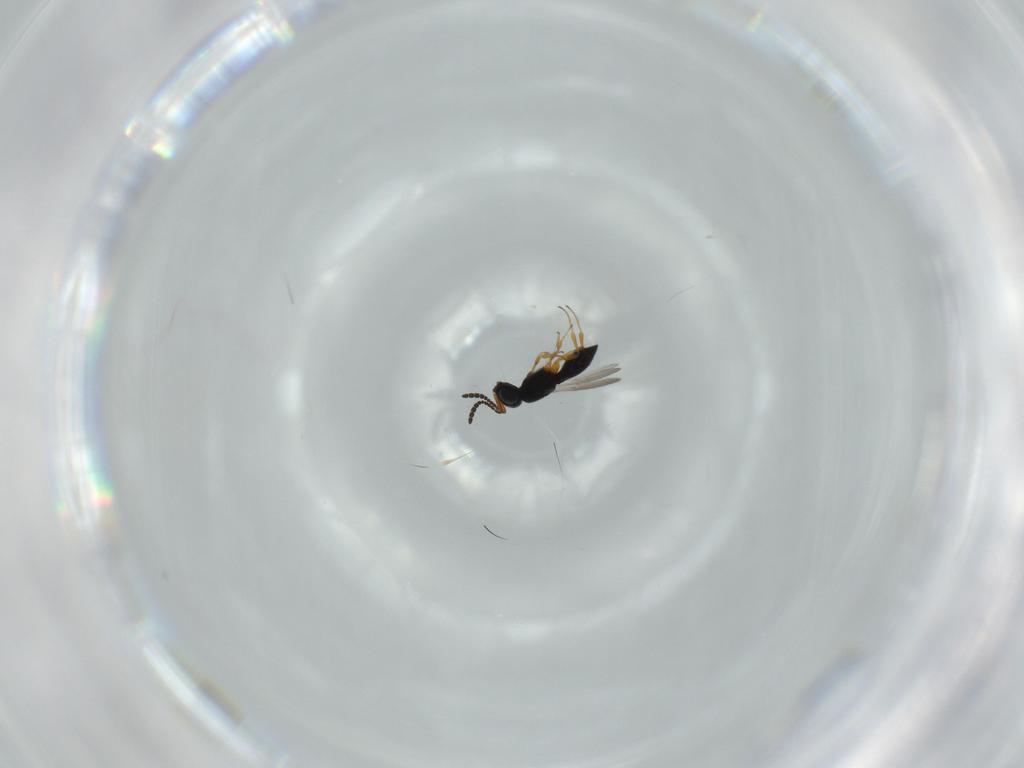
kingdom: Animalia
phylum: Arthropoda
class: Insecta
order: Hymenoptera
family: Scelionidae
